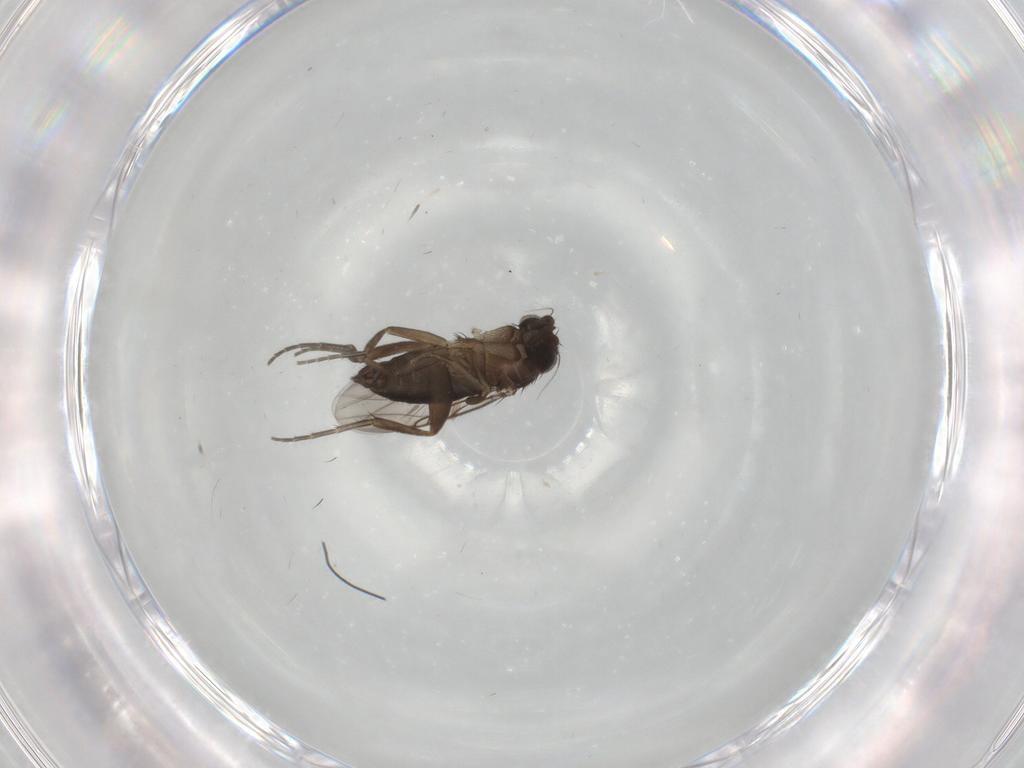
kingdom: Animalia
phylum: Arthropoda
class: Insecta
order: Diptera
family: Phoridae
